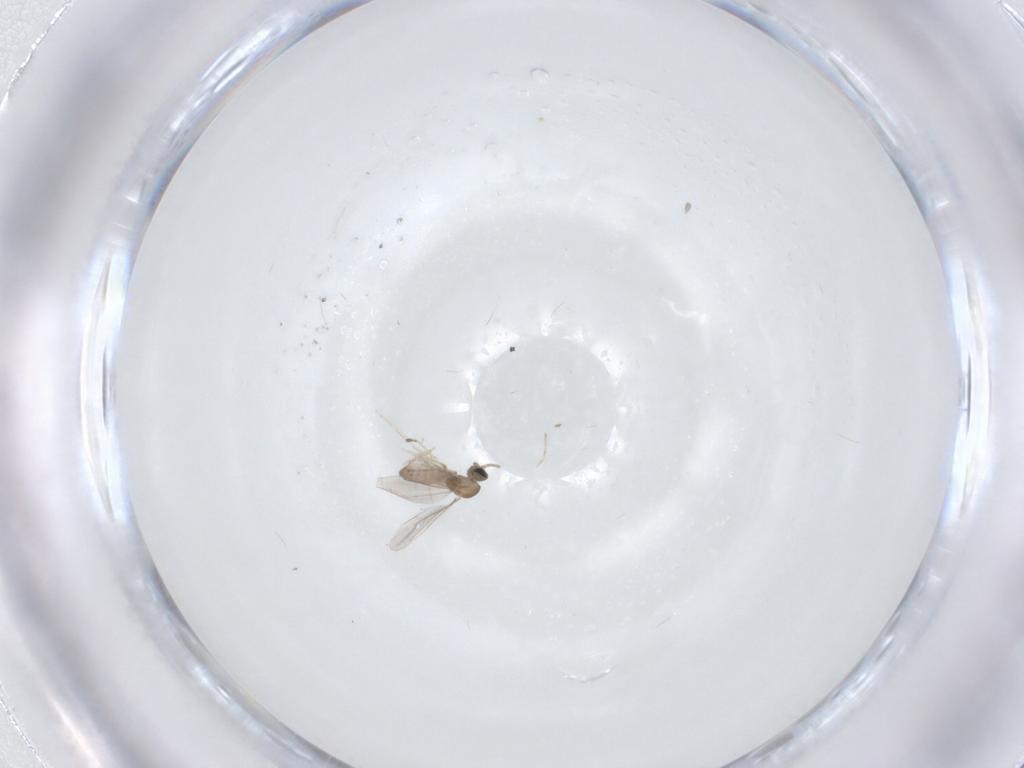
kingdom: Animalia
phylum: Arthropoda
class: Insecta
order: Diptera
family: Cecidomyiidae
